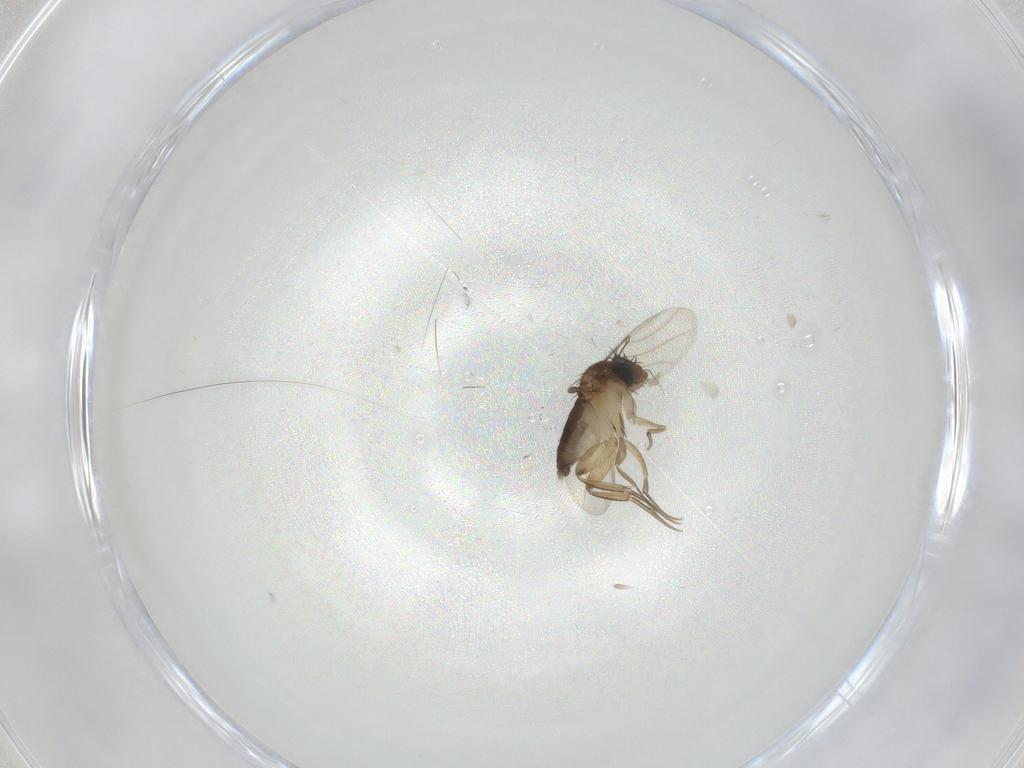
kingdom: Animalia
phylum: Arthropoda
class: Insecta
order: Diptera
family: Phoridae
